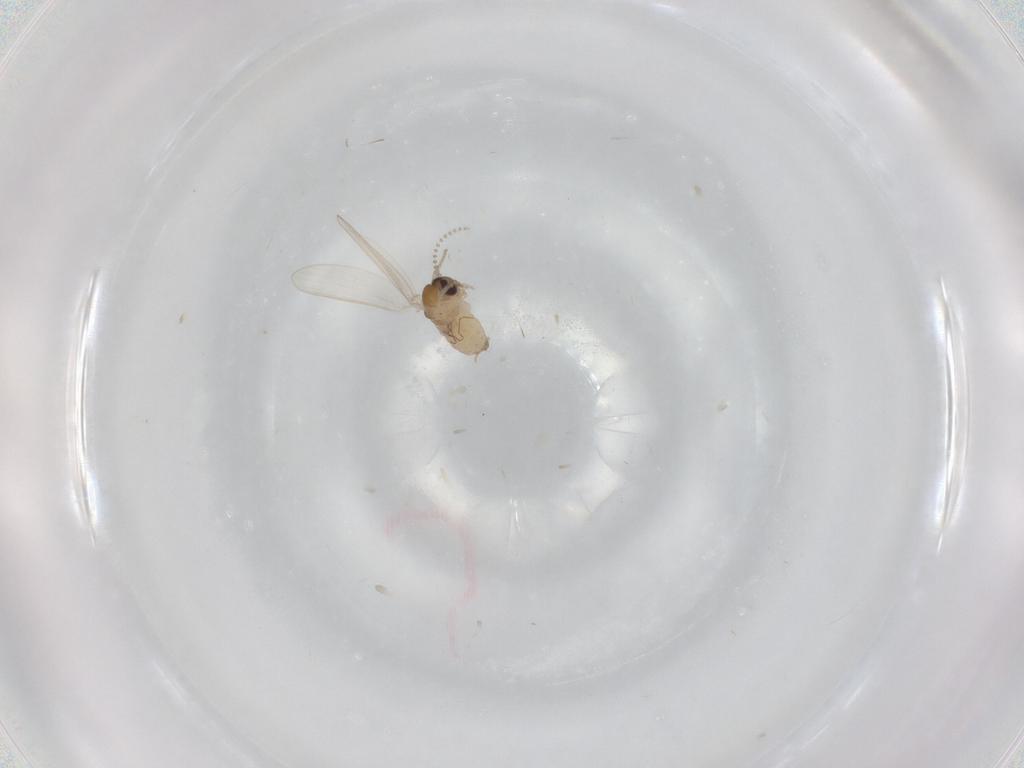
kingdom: Animalia
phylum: Arthropoda
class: Insecta
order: Diptera
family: Psychodidae
